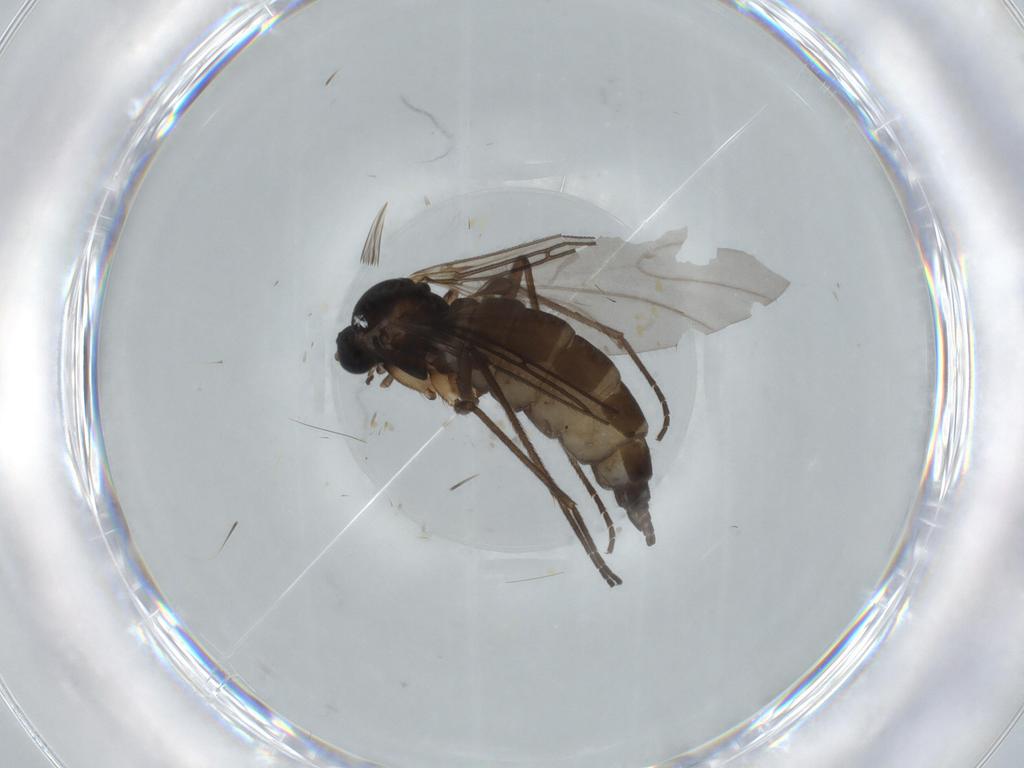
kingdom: Animalia
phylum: Arthropoda
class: Insecta
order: Diptera
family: Sciaridae
